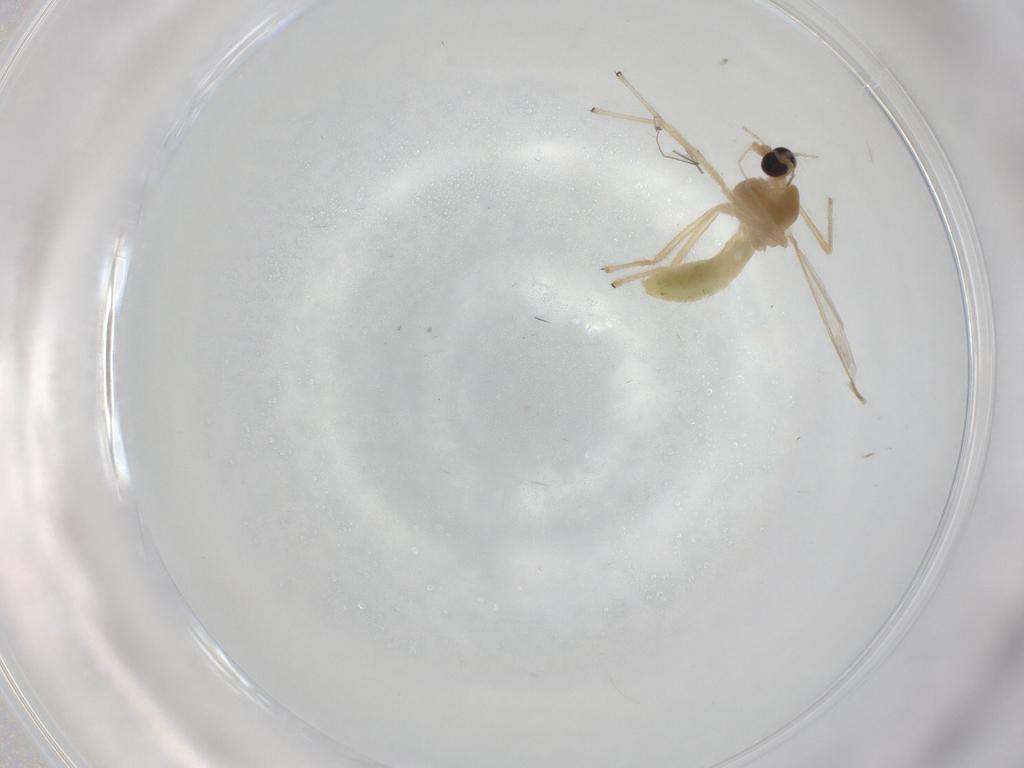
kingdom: Animalia
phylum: Arthropoda
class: Insecta
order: Diptera
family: Chironomidae
